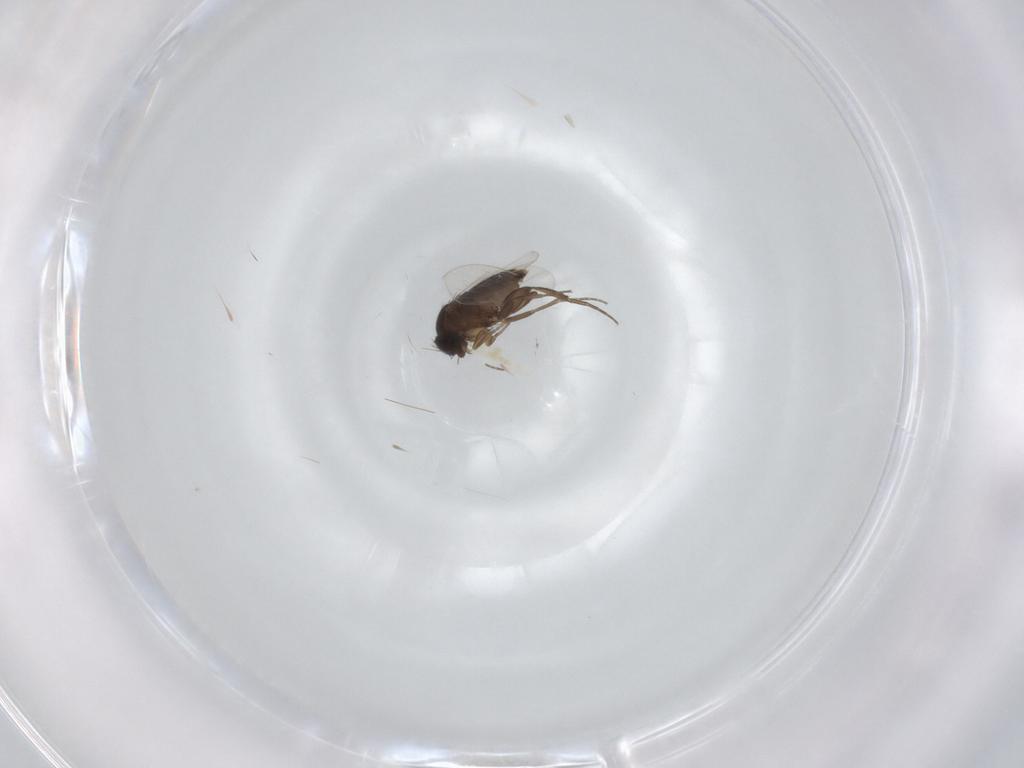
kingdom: Animalia
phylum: Arthropoda
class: Insecta
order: Diptera
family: Phoridae
